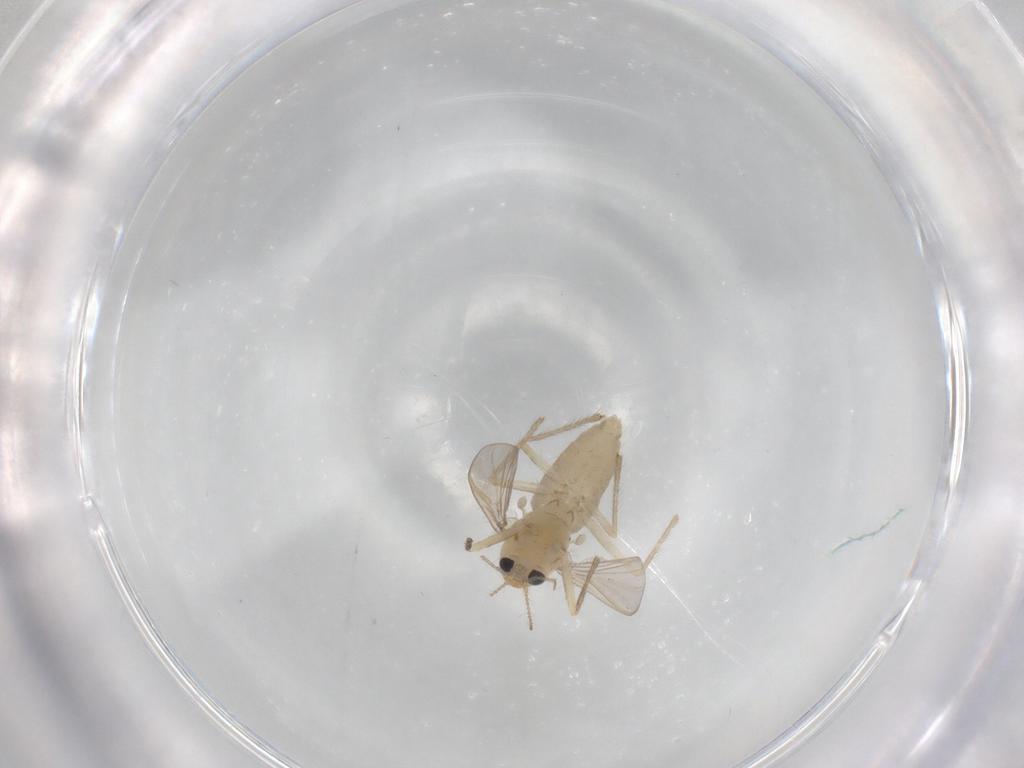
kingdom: Animalia
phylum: Arthropoda
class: Insecta
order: Diptera
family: Chironomidae
